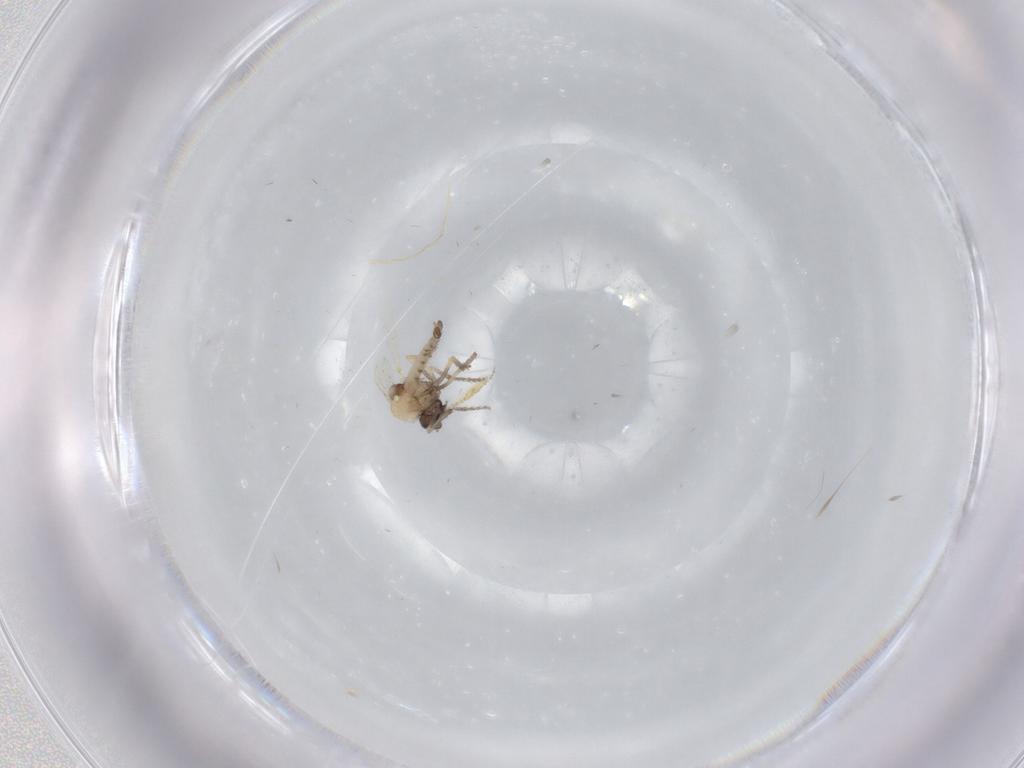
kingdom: Animalia
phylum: Arthropoda
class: Insecta
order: Diptera
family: Ceratopogonidae
